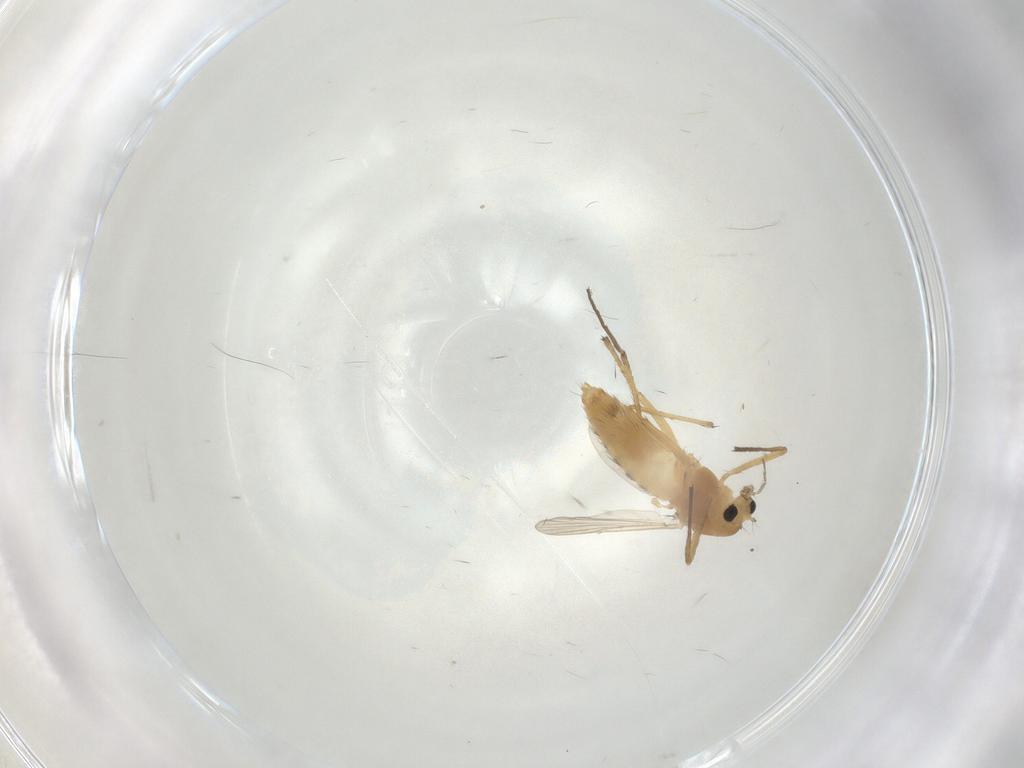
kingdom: Animalia
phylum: Arthropoda
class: Insecta
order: Diptera
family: Chironomidae
